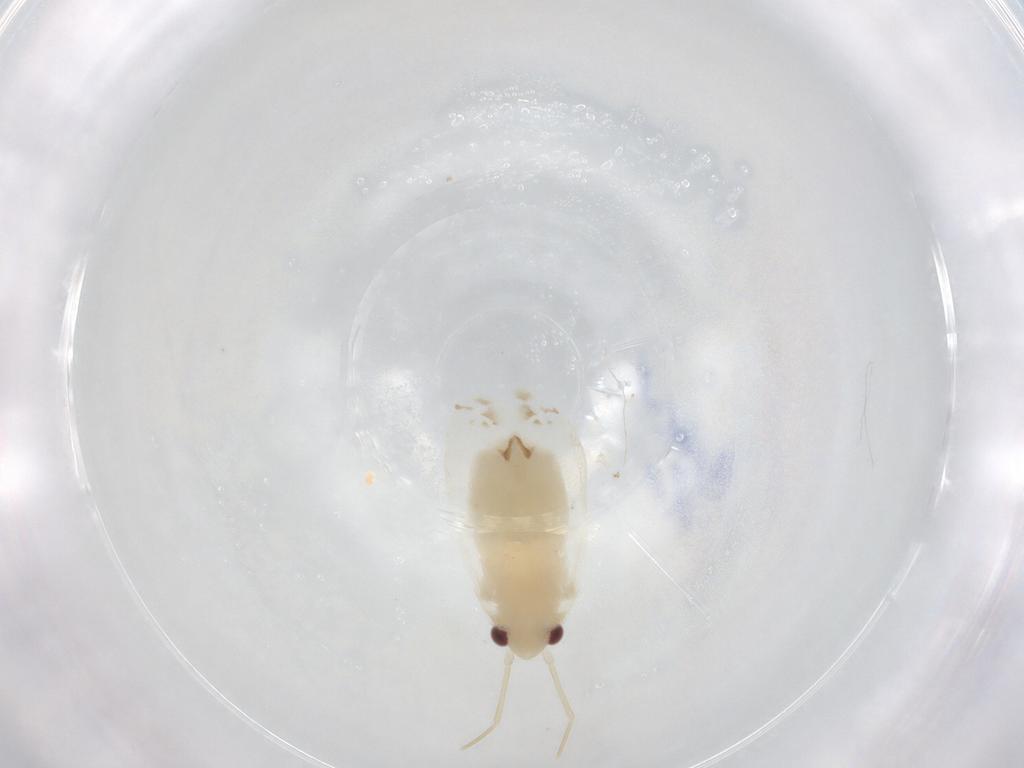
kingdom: Animalia
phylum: Arthropoda
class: Insecta
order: Hemiptera
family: Miridae
